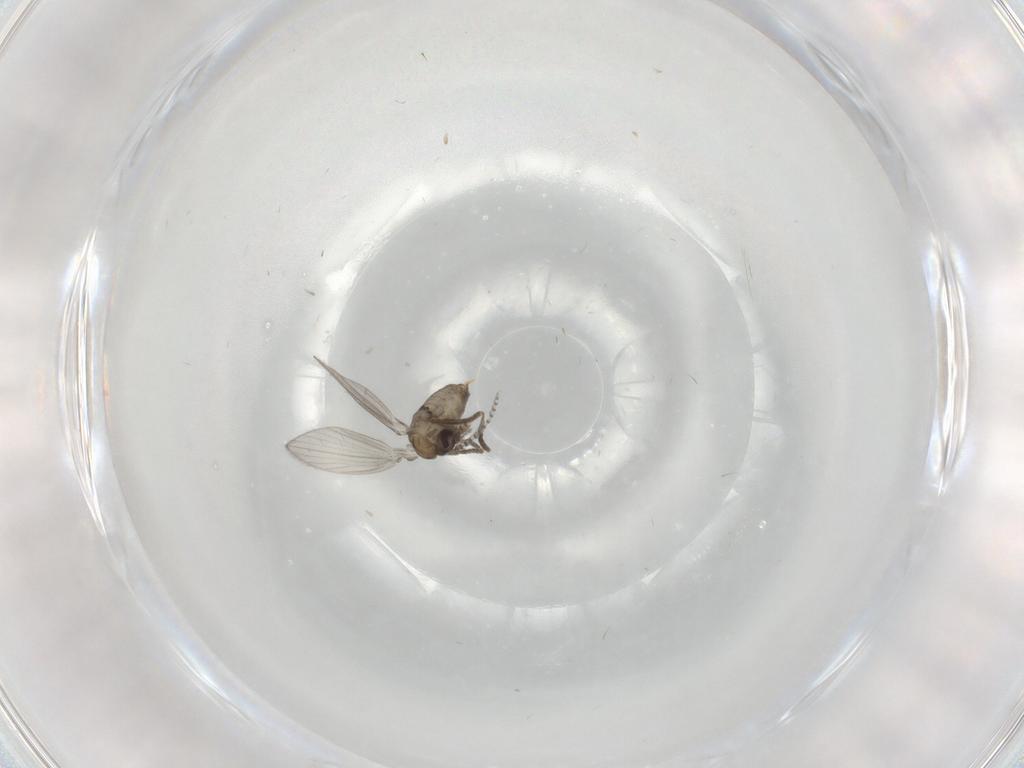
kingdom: Animalia
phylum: Arthropoda
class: Insecta
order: Diptera
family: Psychodidae
